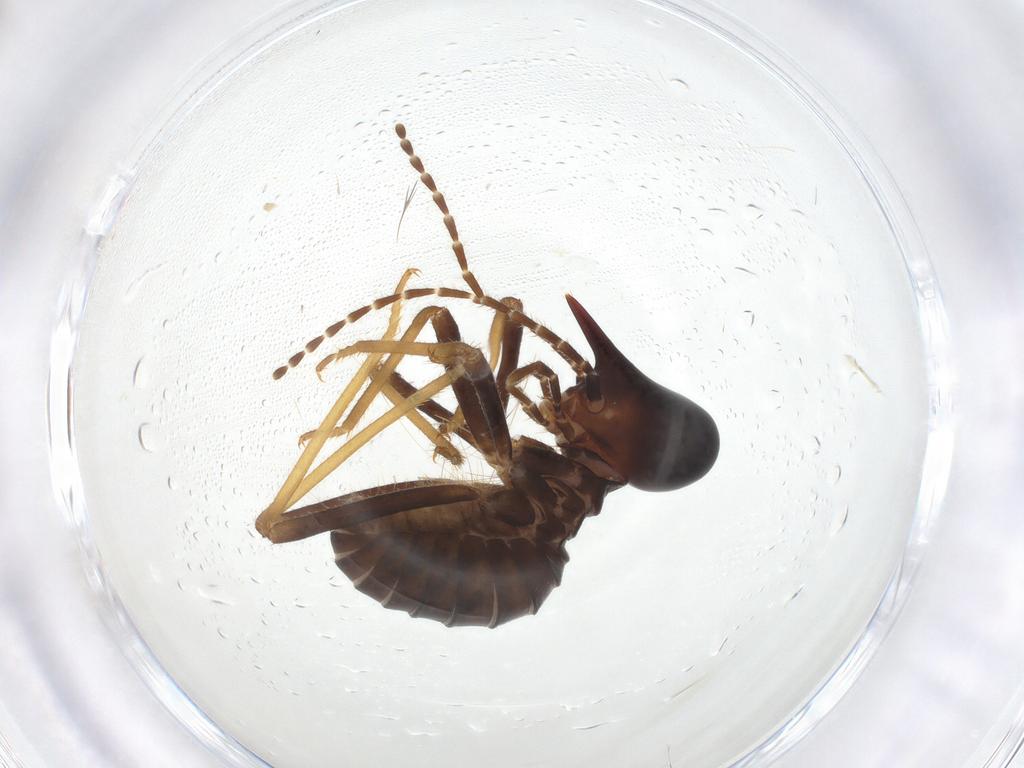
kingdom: Animalia
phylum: Arthropoda
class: Insecta
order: Blattodea
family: Termitidae
